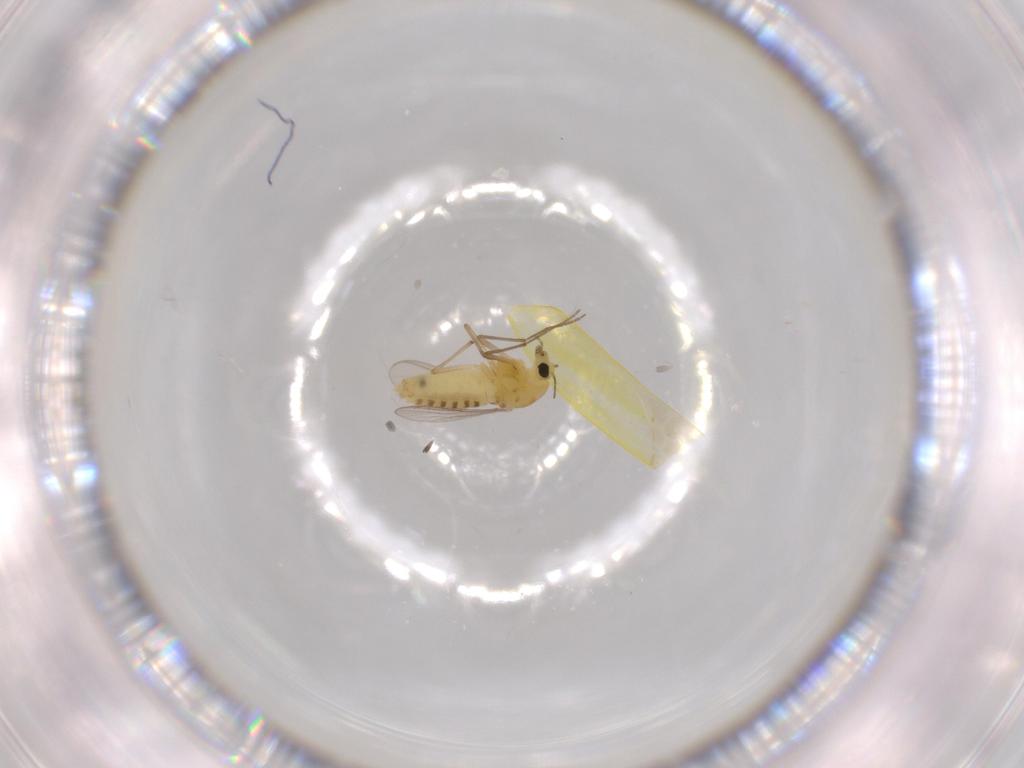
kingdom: Animalia
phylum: Arthropoda
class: Insecta
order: Diptera
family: Chironomidae
